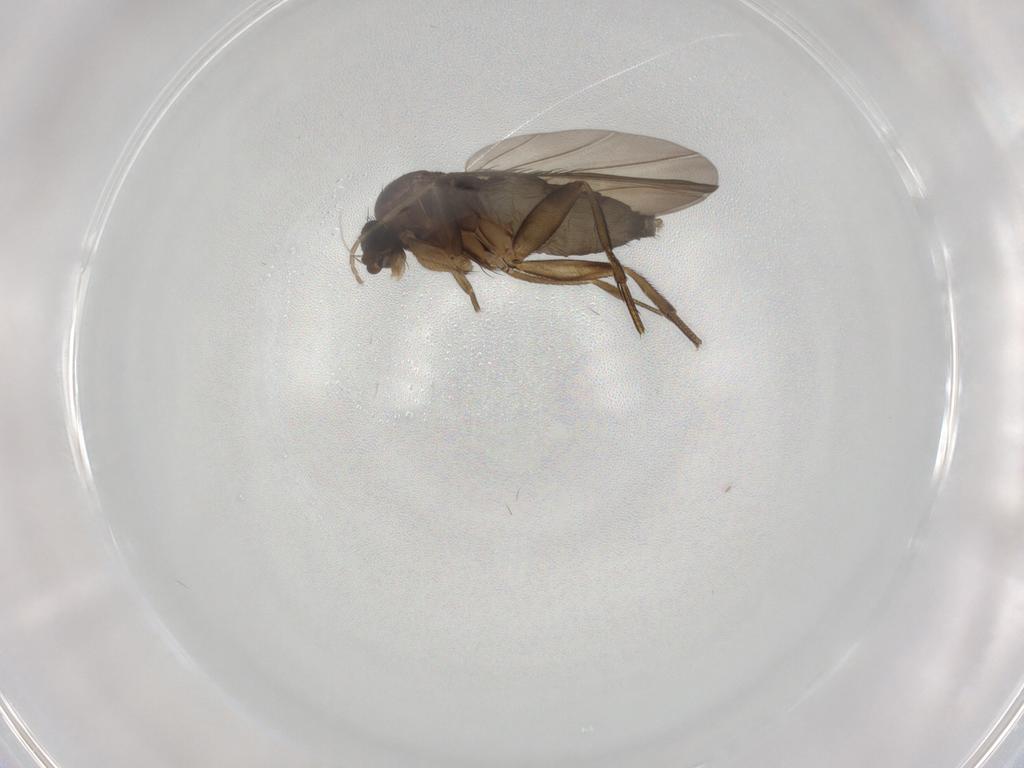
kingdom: Animalia
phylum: Arthropoda
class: Insecta
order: Diptera
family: Phoridae
